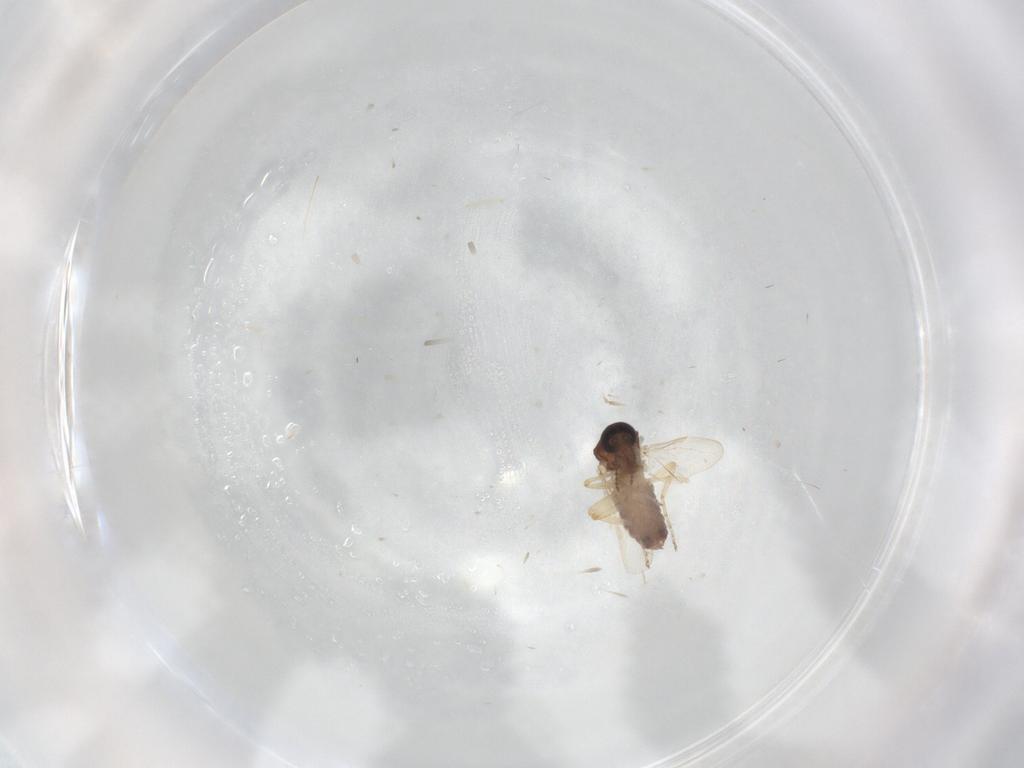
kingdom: Animalia
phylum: Arthropoda
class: Insecta
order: Diptera
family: Ceratopogonidae
